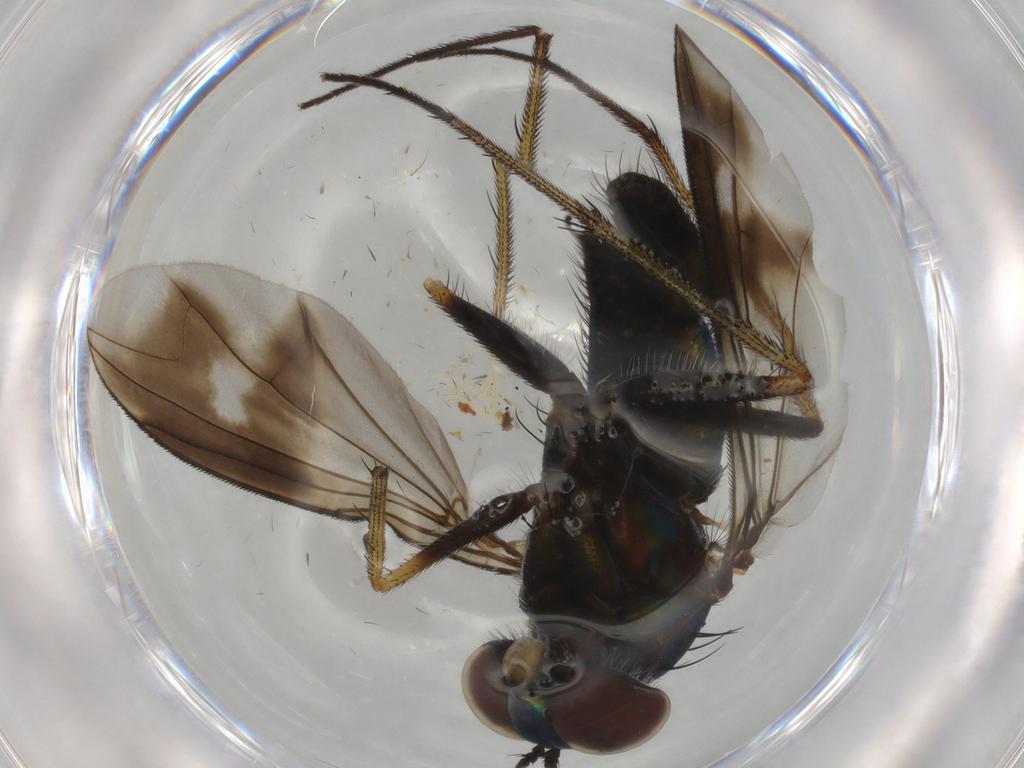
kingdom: Animalia
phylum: Arthropoda
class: Insecta
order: Diptera
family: Dolichopodidae
